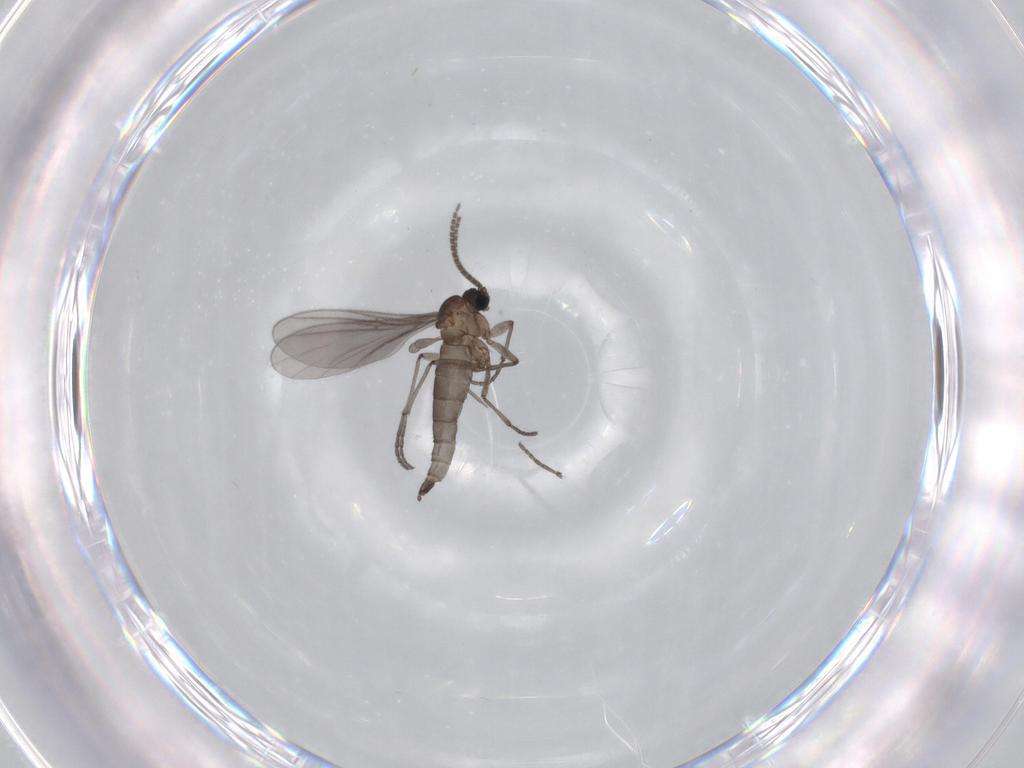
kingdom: Animalia
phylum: Arthropoda
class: Insecta
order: Diptera
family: Sciaridae
